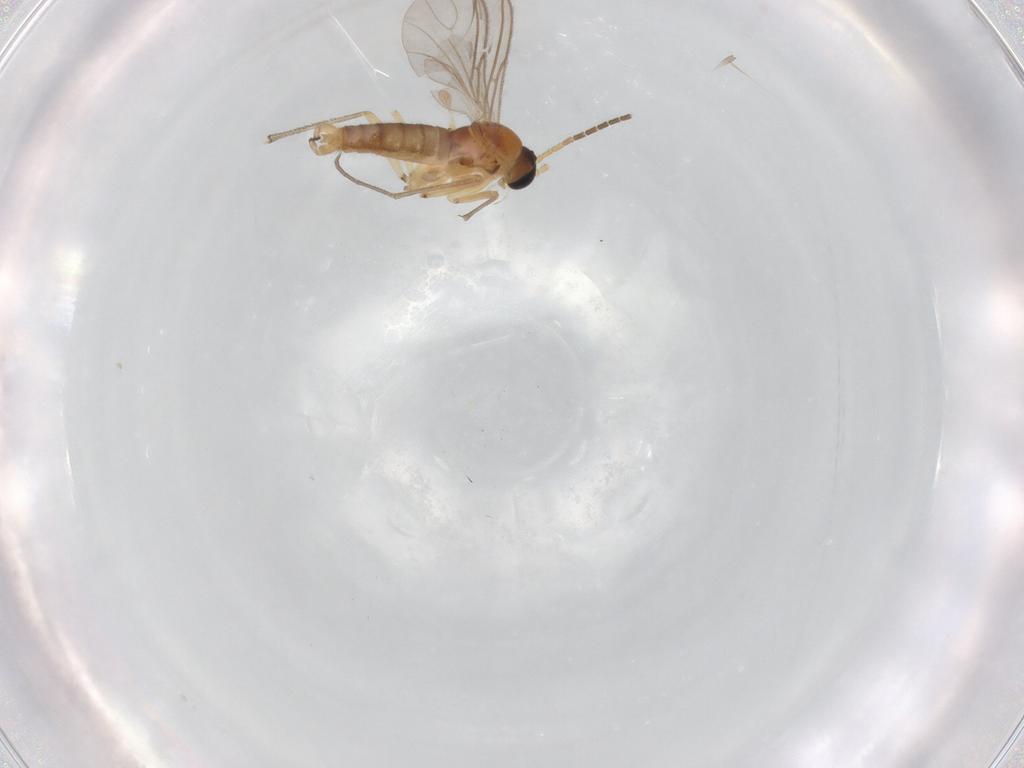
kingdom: Animalia
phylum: Arthropoda
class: Insecta
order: Diptera
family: Sciaridae
